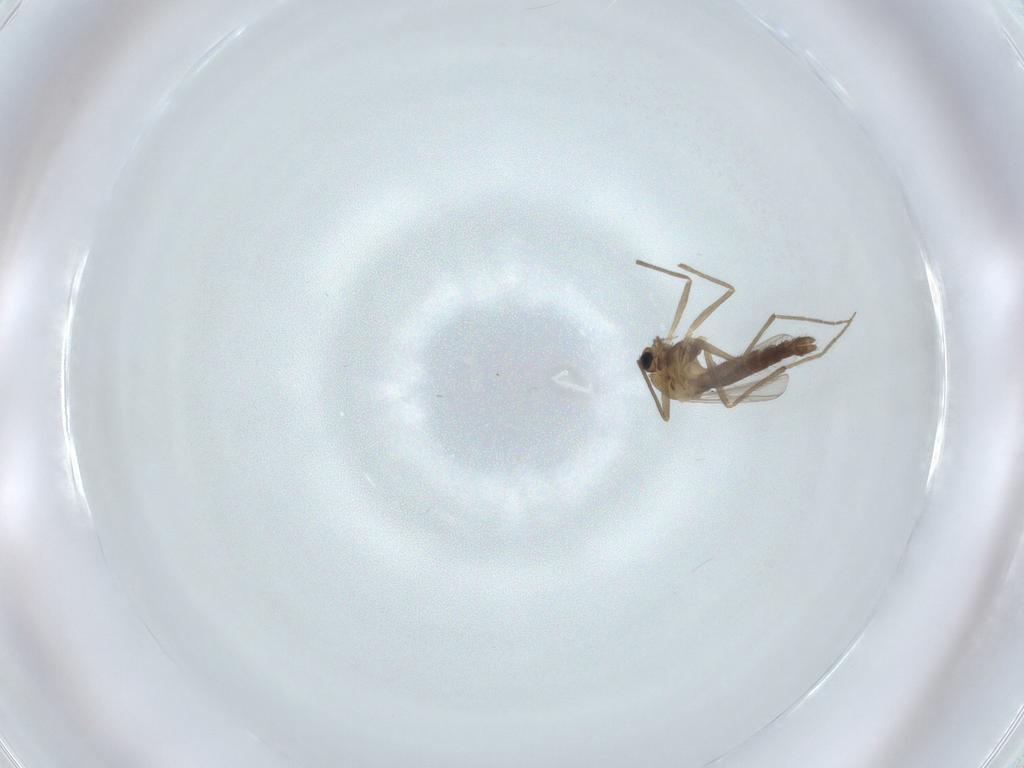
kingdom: Animalia
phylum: Arthropoda
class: Insecta
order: Diptera
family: Chironomidae
